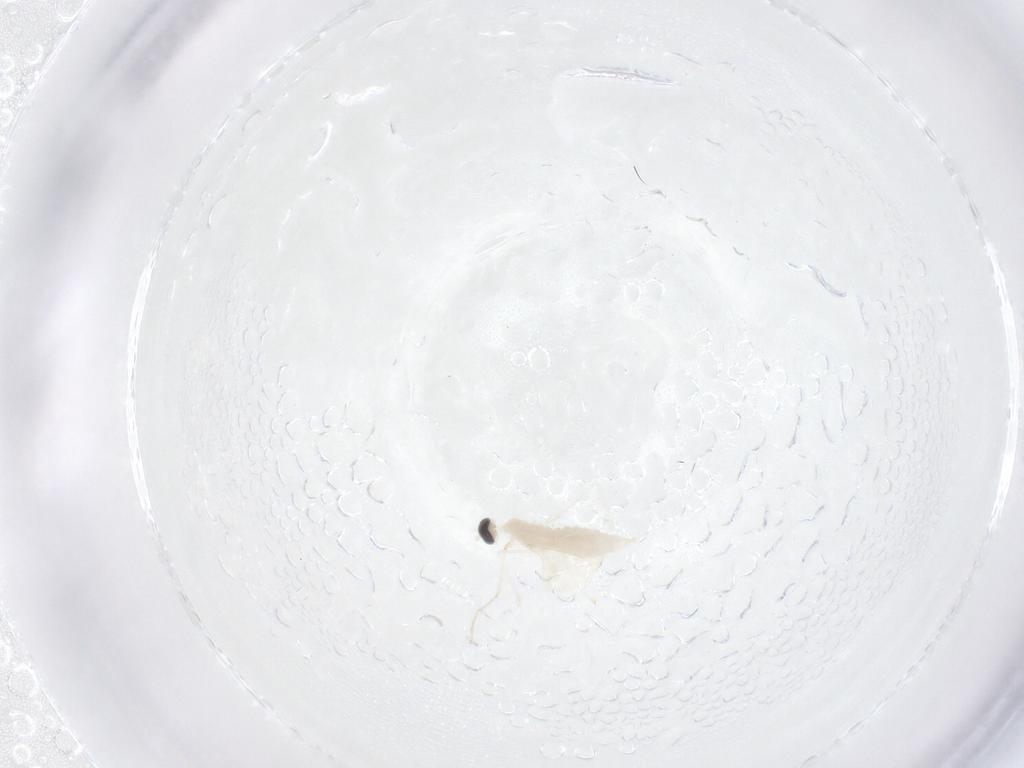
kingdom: Animalia
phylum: Arthropoda
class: Insecta
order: Diptera
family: Cecidomyiidae
